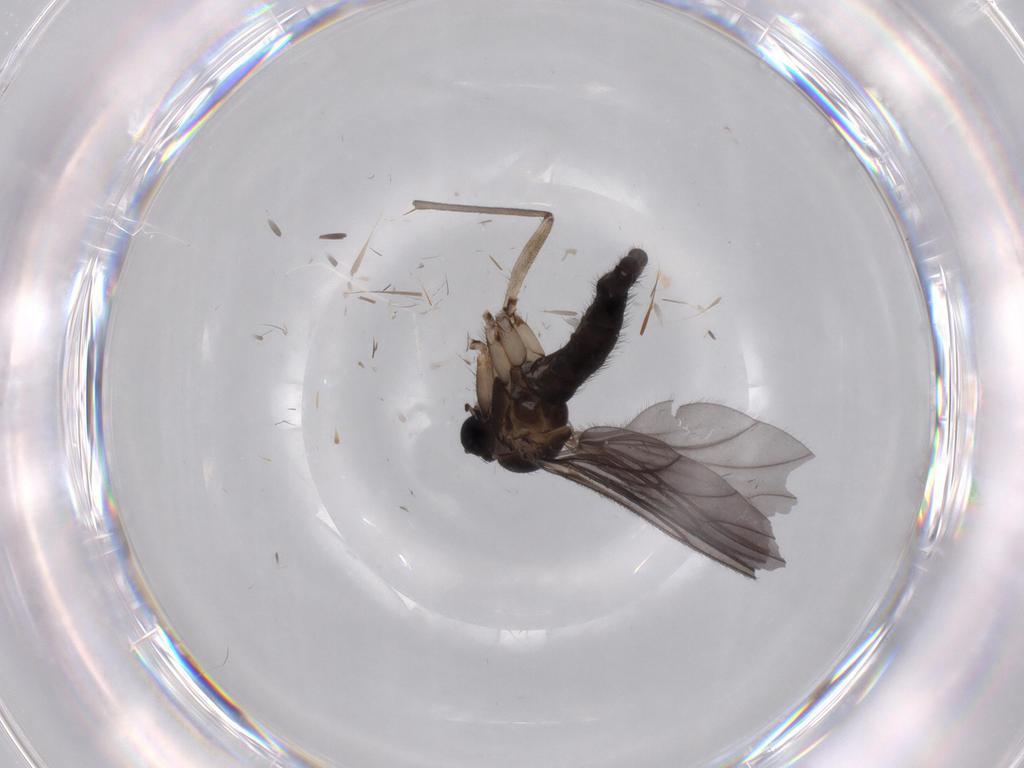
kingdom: Animalia
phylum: Arthropoda
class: Insecta
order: Diptera
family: Sciaridae
